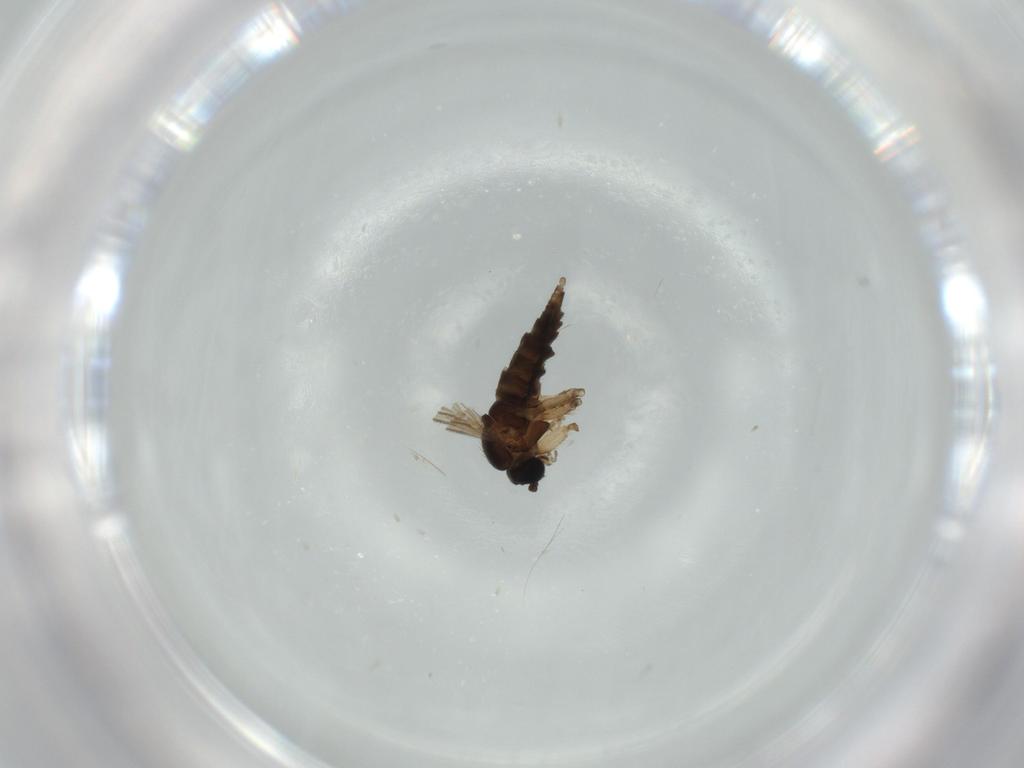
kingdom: Animalia
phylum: Arthropoda
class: Insecta
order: Diptera
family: Sciaridae
